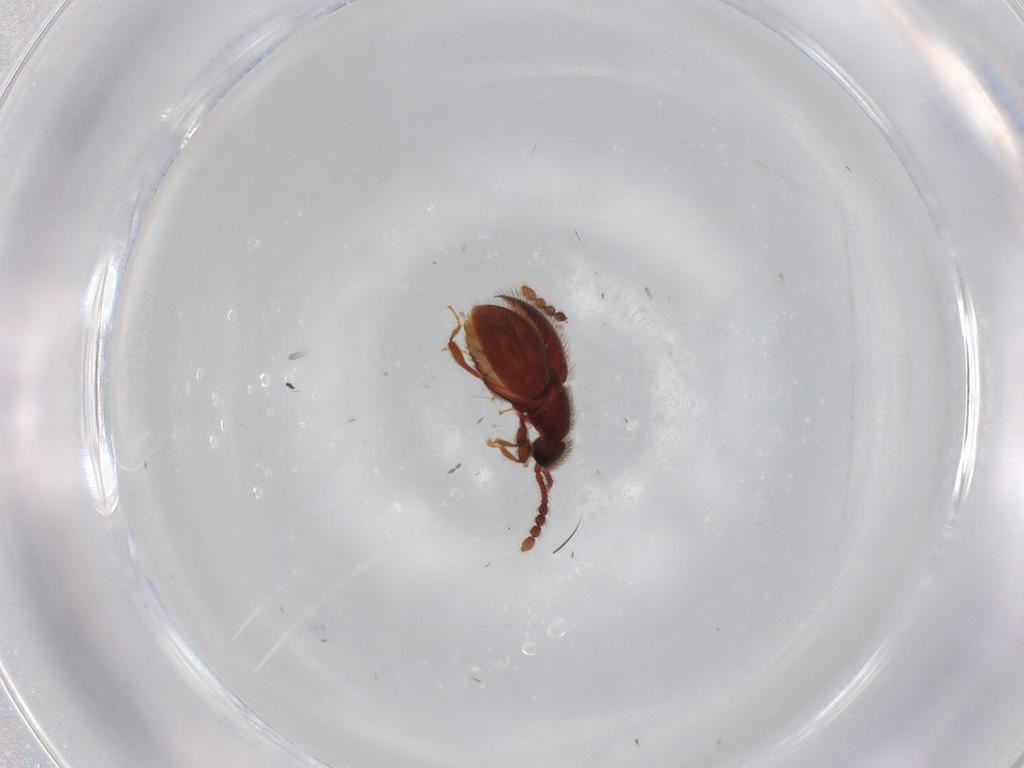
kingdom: Animalia
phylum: Arthropoda
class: Insecta
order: Coleoptera
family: Staphylinidae
